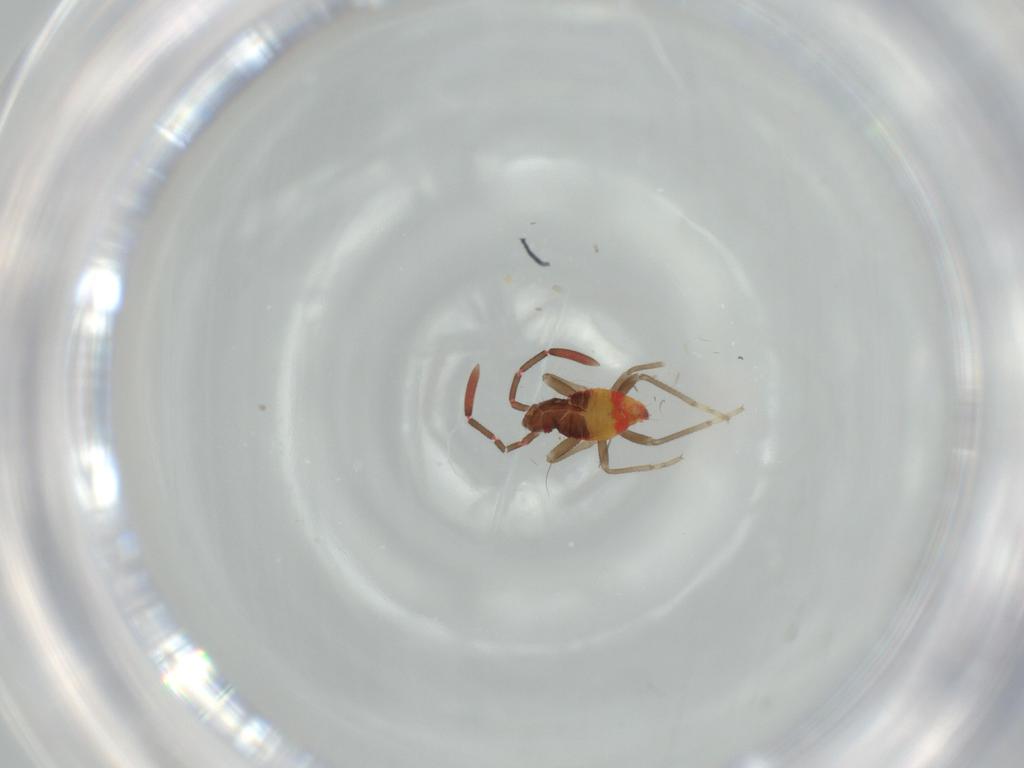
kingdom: Animalia
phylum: Arthropoda
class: Insecta
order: Hemiptera
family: Rhyparochromidae
